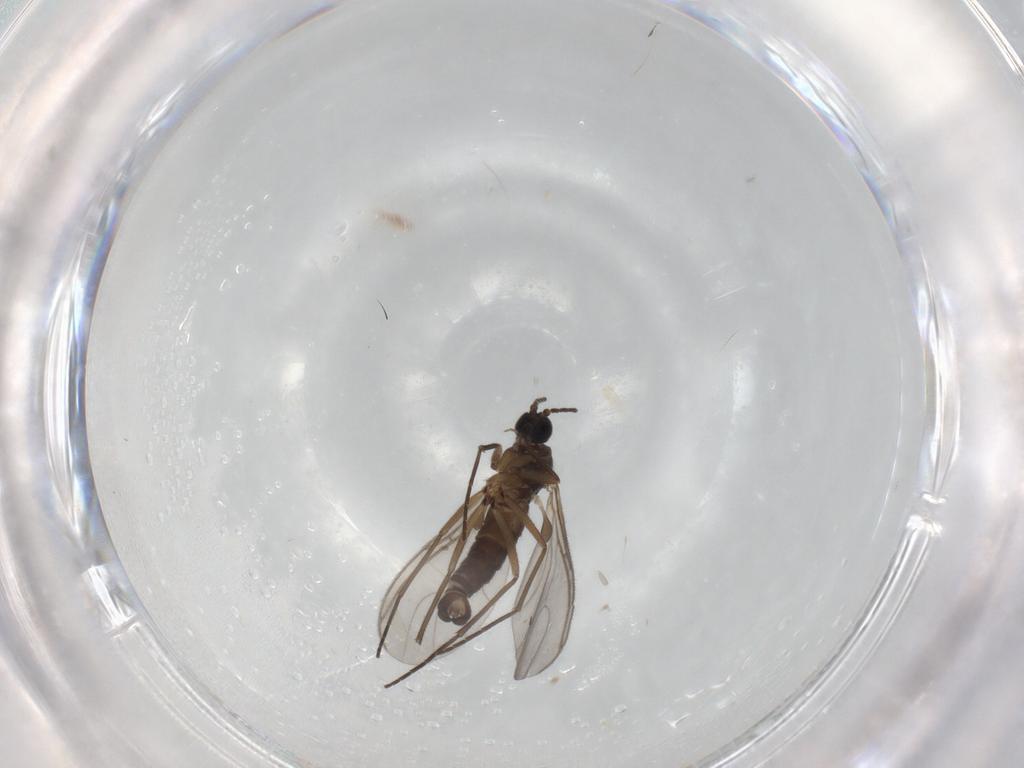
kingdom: Animalia
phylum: Arthropoda
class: Insecta
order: Diptera
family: Sciaridae
